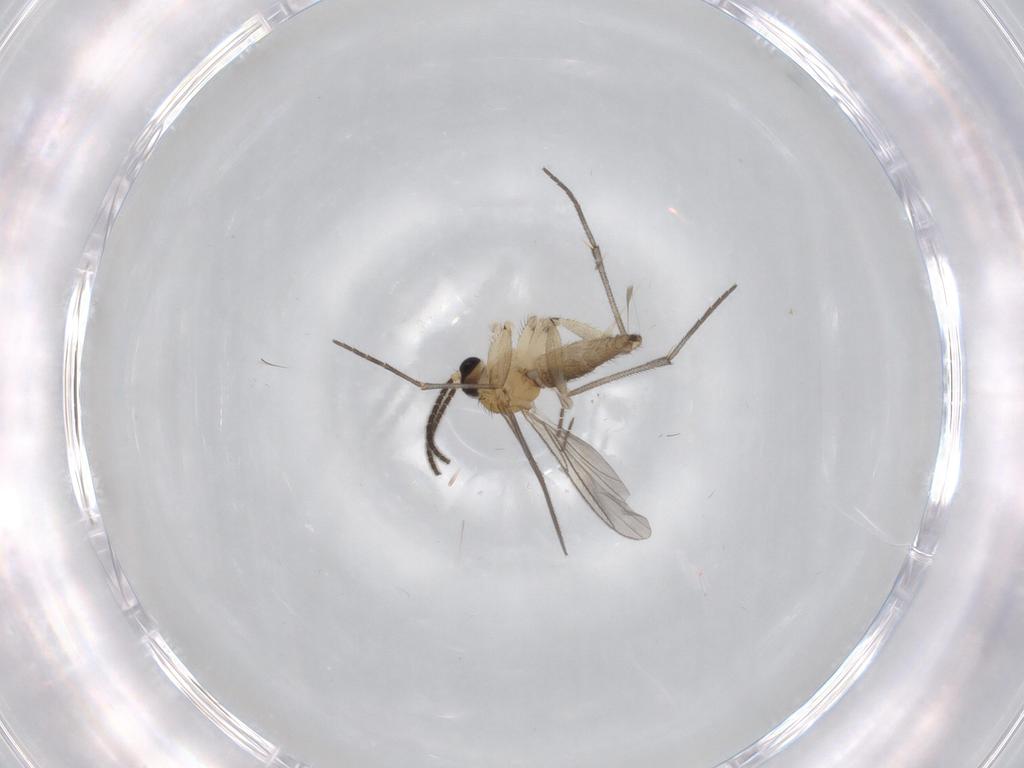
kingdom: Animalia
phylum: Arthropoda
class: Insecta
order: Diptera
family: Sciaridae
